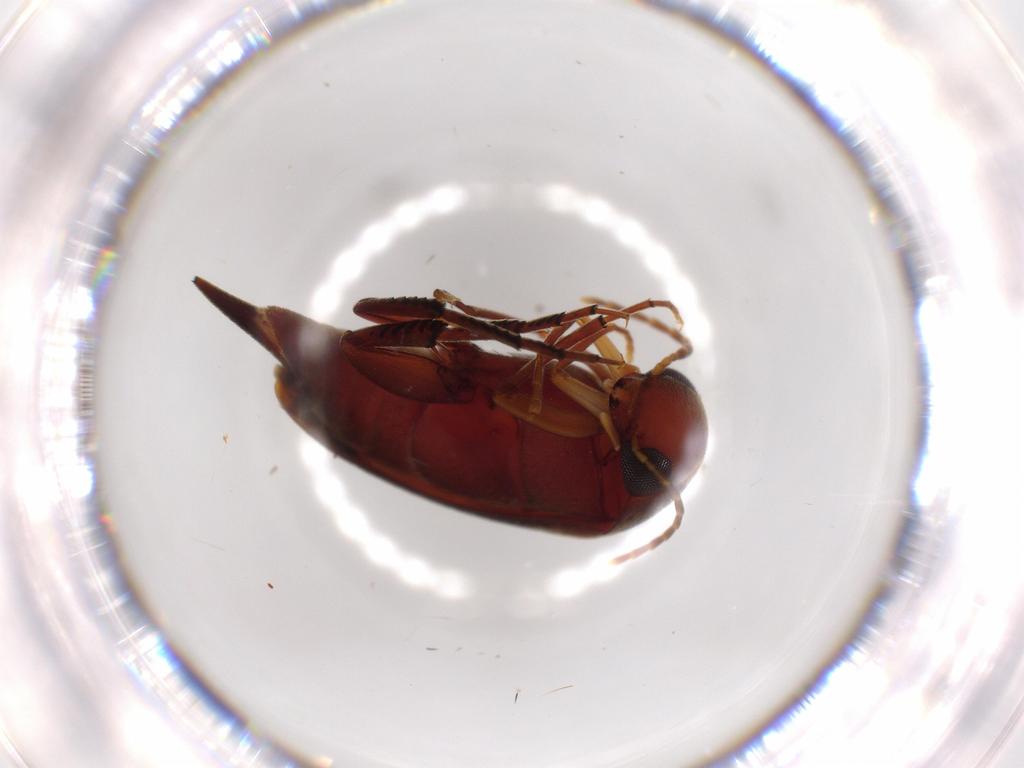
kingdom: Animalia
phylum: Arthropoda
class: Insecta
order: Coleoptera
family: Chrysomelidae
